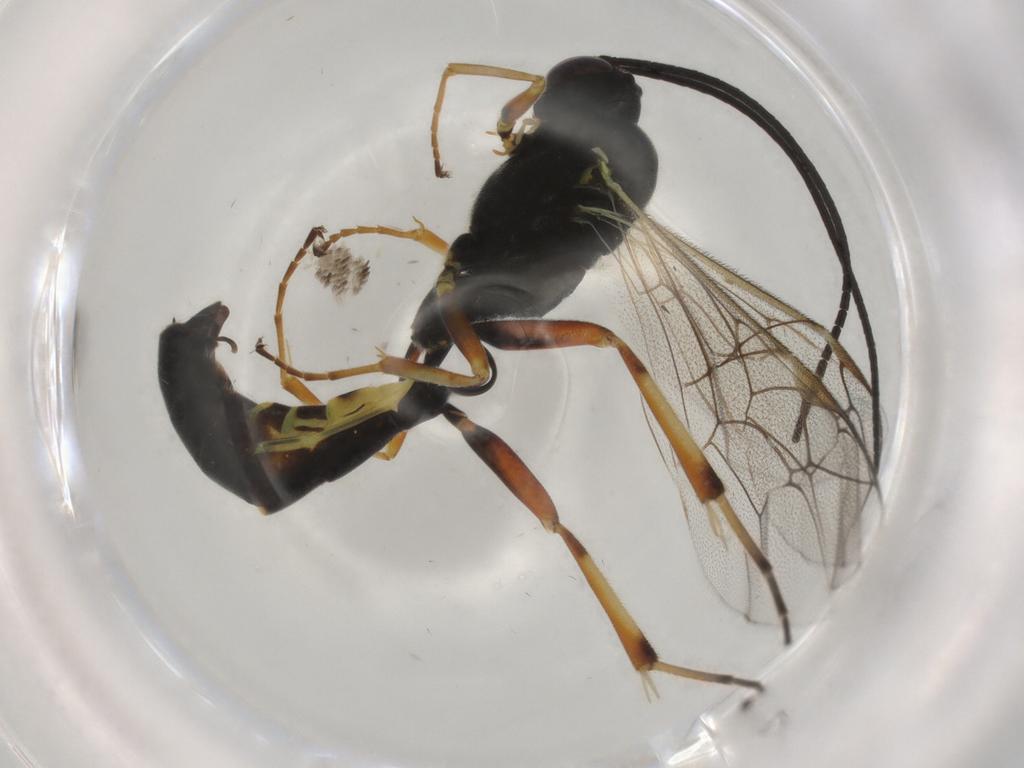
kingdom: Animalia
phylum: Arthropoda
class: Insecta
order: Hymenoptera
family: Ichneumonidae
